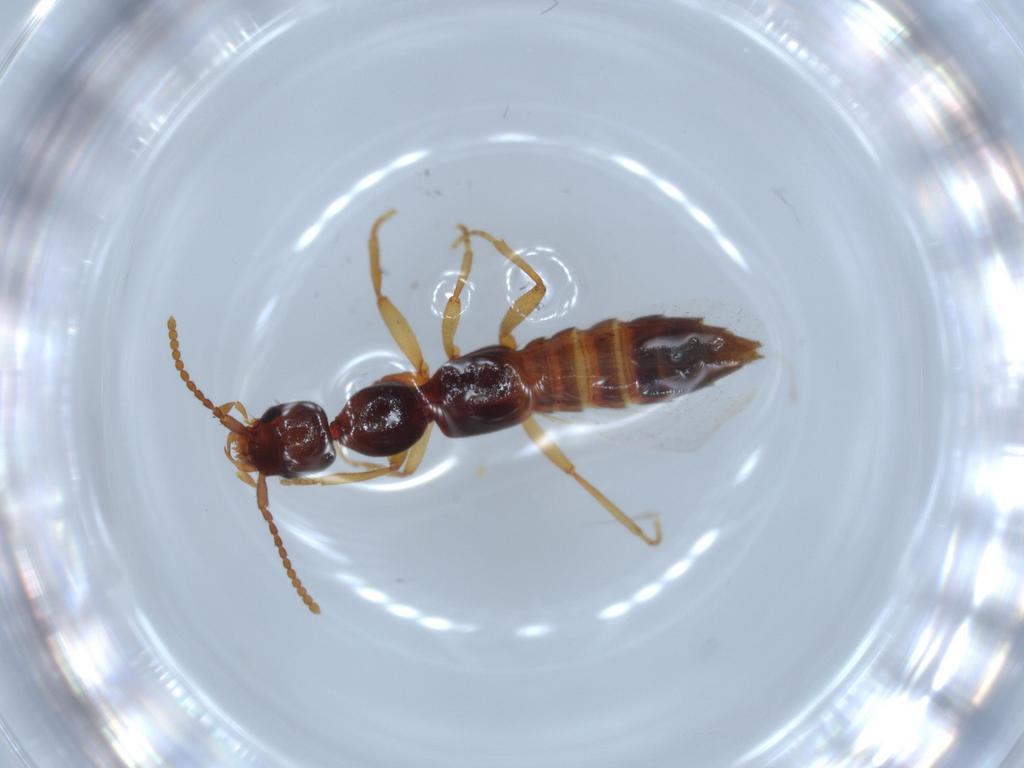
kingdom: Animalia
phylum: Arthropoda
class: Insecta
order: Coleoptera
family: Staphylinidae
